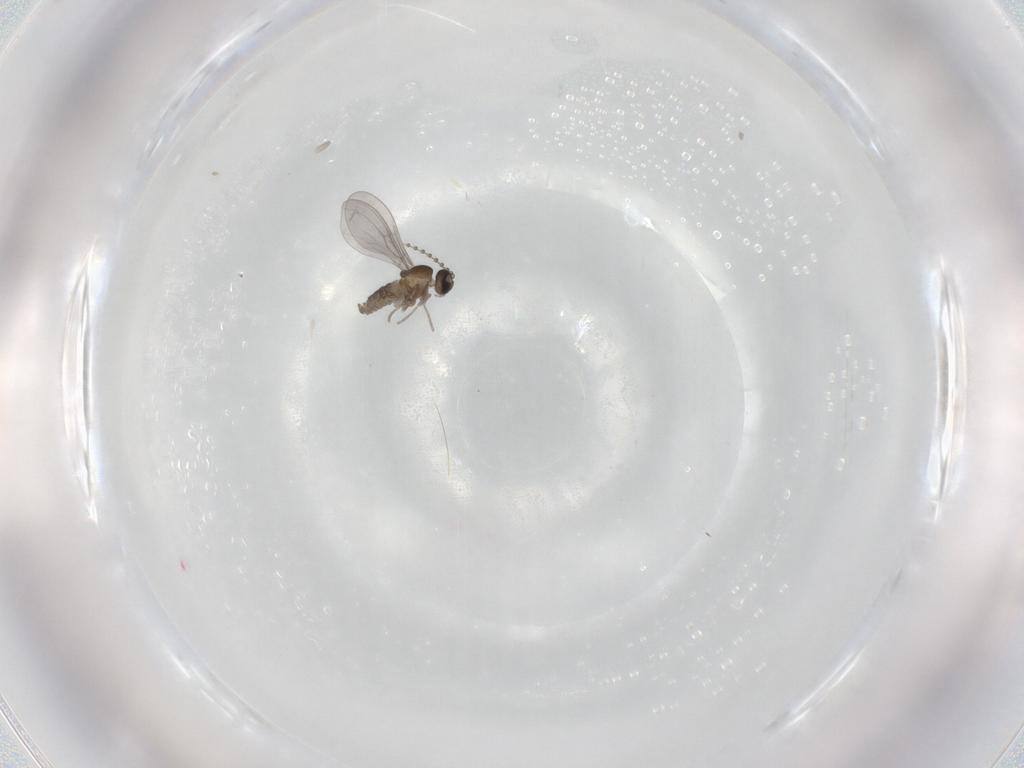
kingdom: Animalia
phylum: Arthropoda
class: Insecta
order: Diptera
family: Cecidomyiidae
